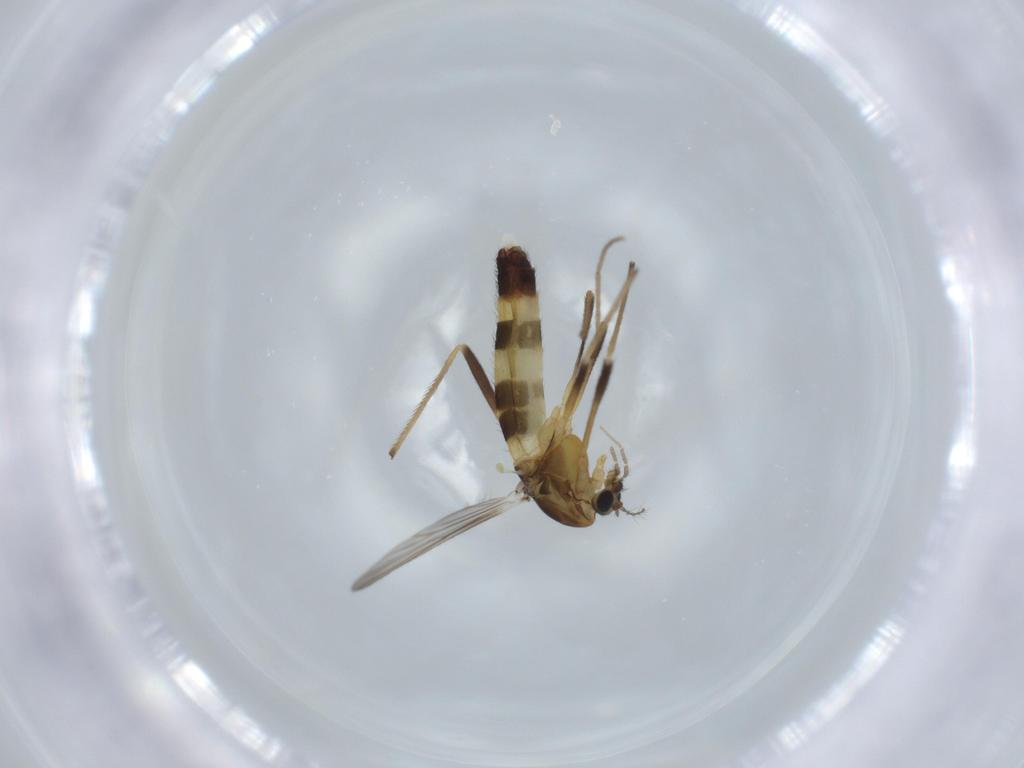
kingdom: Animalia
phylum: Arthropoda
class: Insecta
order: Diptera
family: Chironomidae
